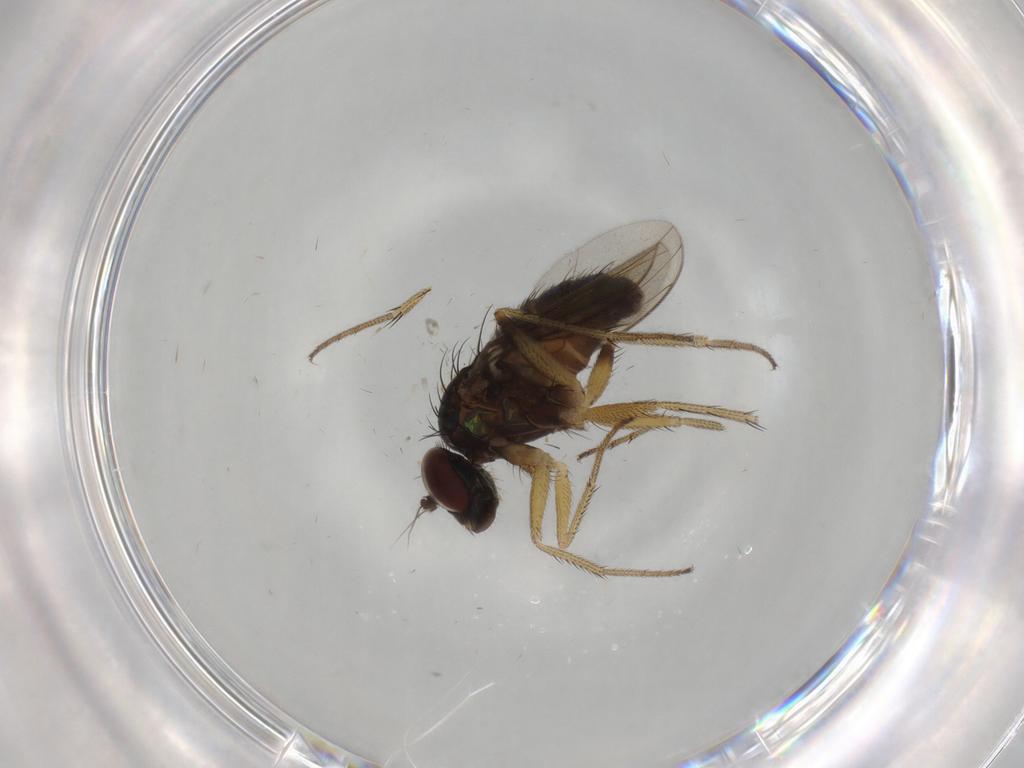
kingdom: Animalia
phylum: Arthropoda
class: Insecta
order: Diptera
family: Dolichopodidae
